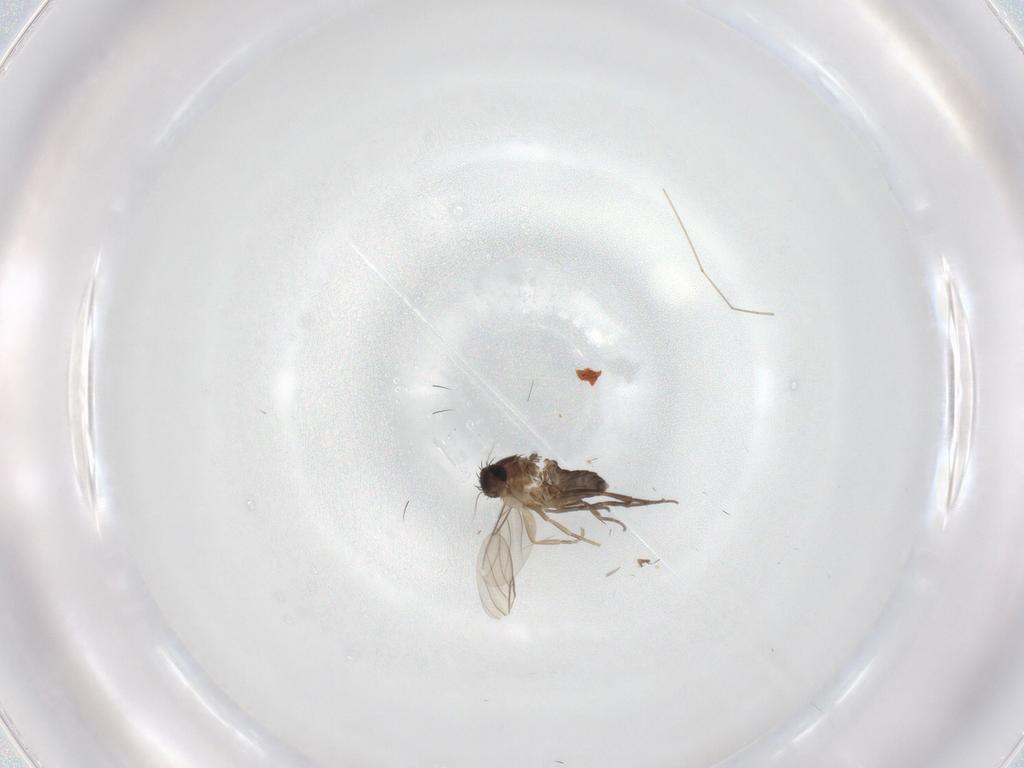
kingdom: Animalia
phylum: Arthropoda
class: Insecta
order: Diptera
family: Phoridae
